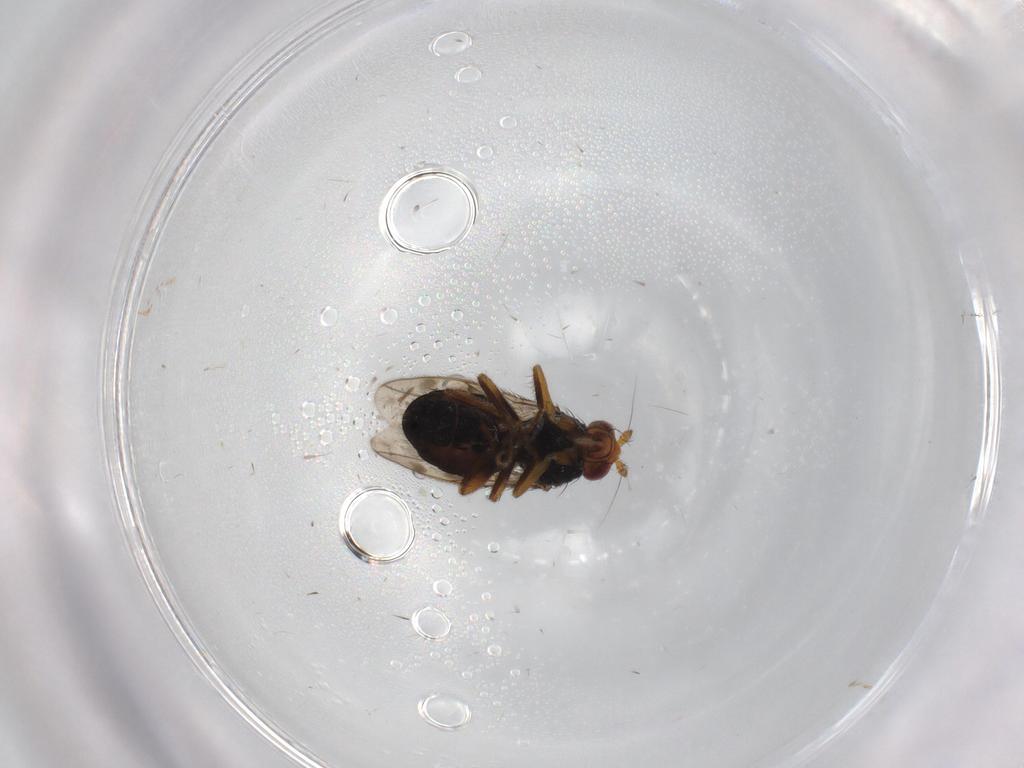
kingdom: Animalia
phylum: Arthropoda
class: Insecta
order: Diptera
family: Sphaeroceridae
